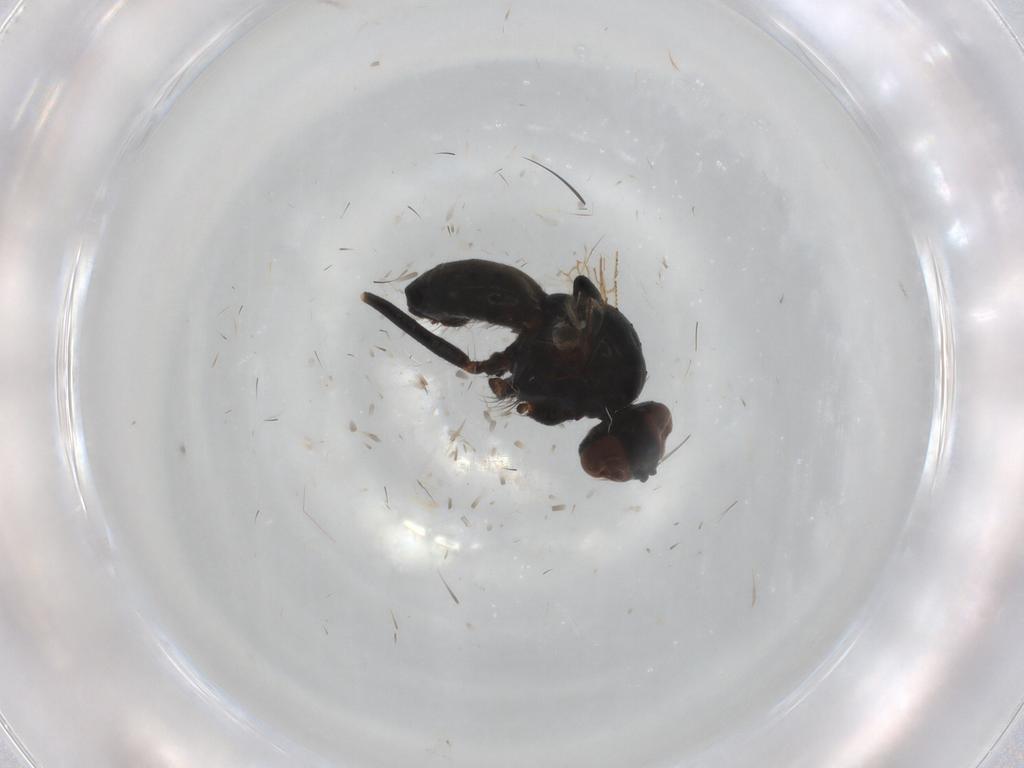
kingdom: Animalia
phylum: Arthropoda
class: Insecta
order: Diptera
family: Muscidae
